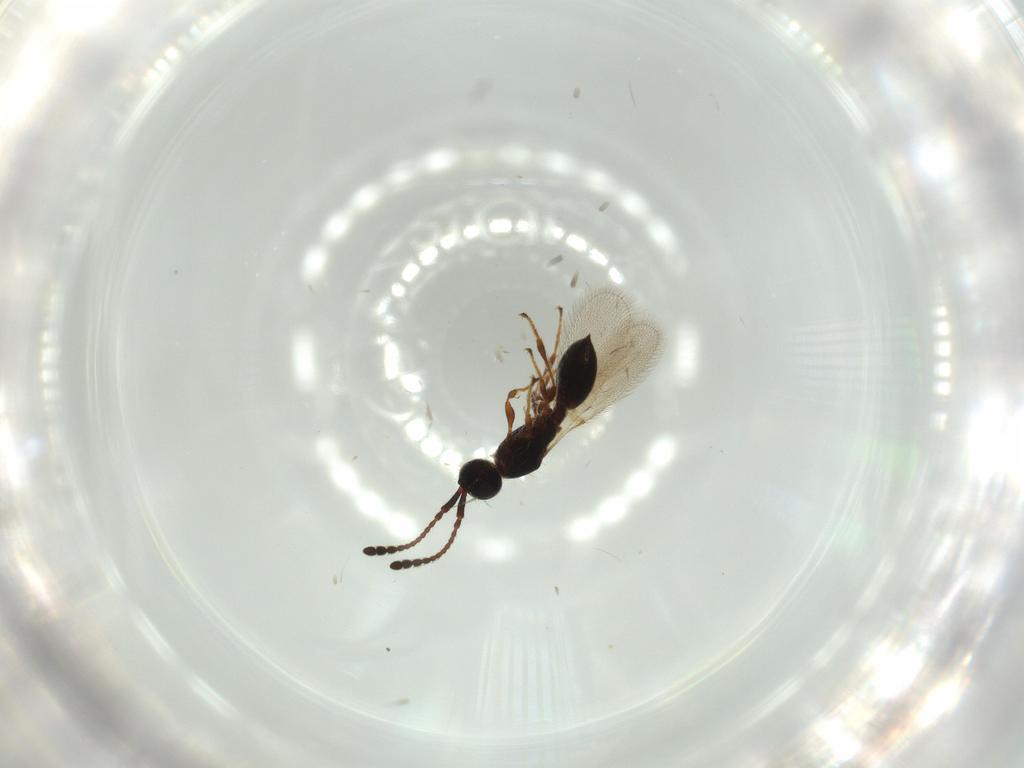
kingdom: Animalia
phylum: Arthropoda
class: Insecta
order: Hymenoptera
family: Diapriidae
